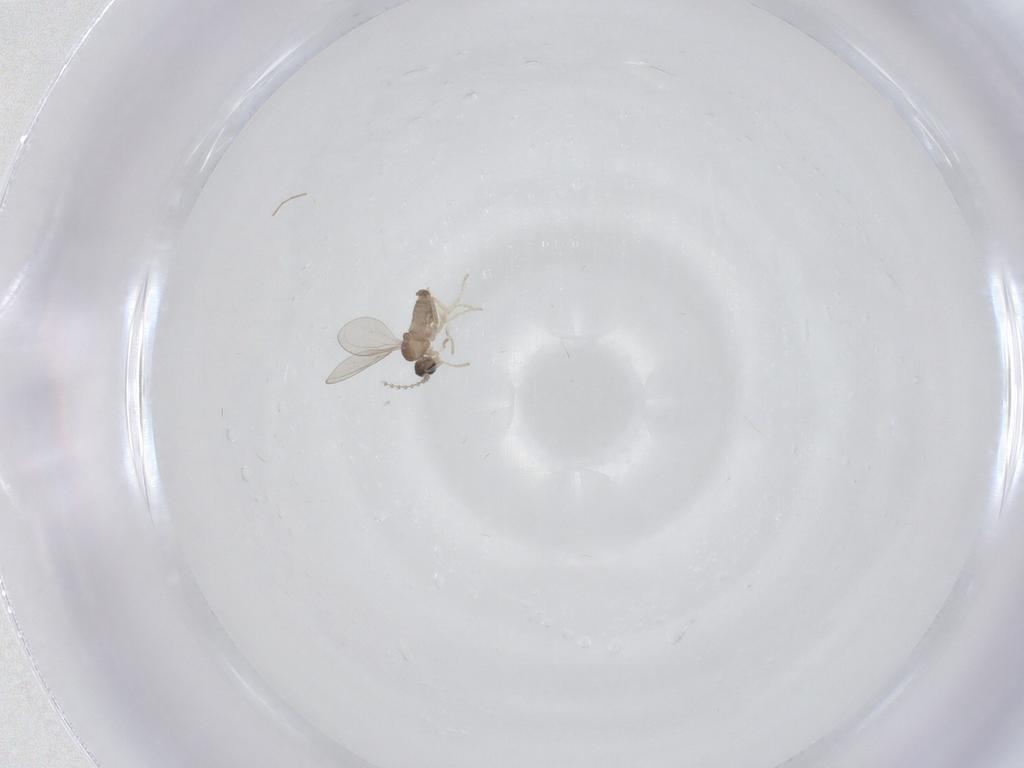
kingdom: Animalia
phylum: Arthropoda
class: Insecta
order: Diptera
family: Cecidomyiidae
